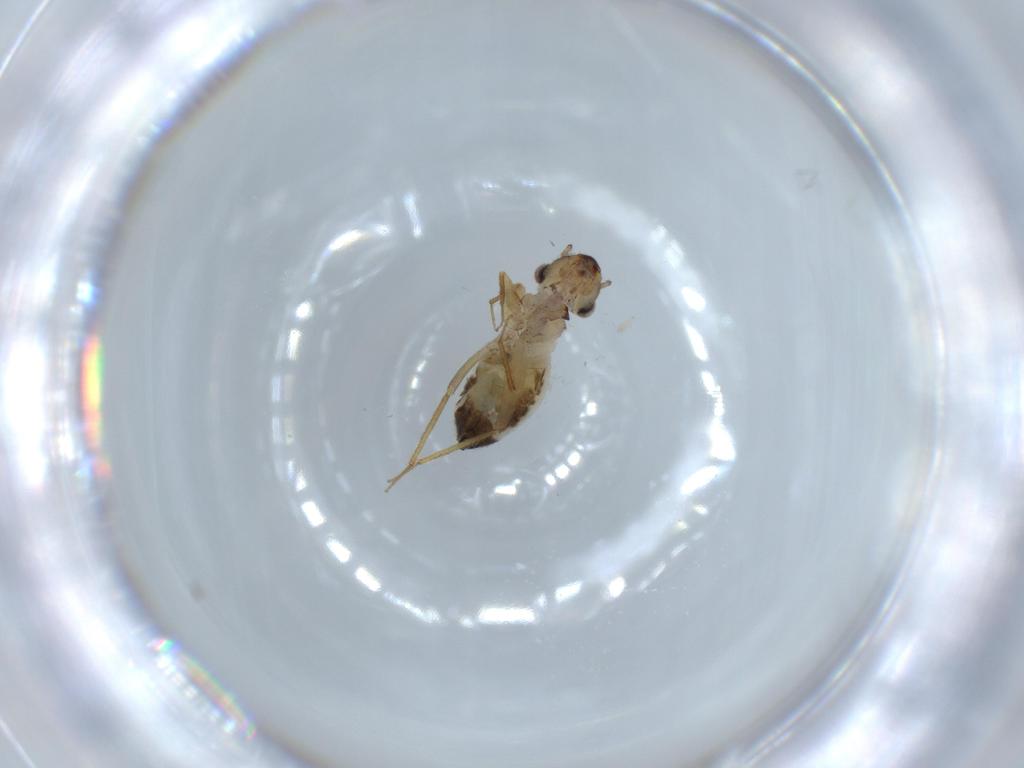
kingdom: Animalia
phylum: Arthropoda
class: Insecta
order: Psocodea
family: Lepidopsocidae
